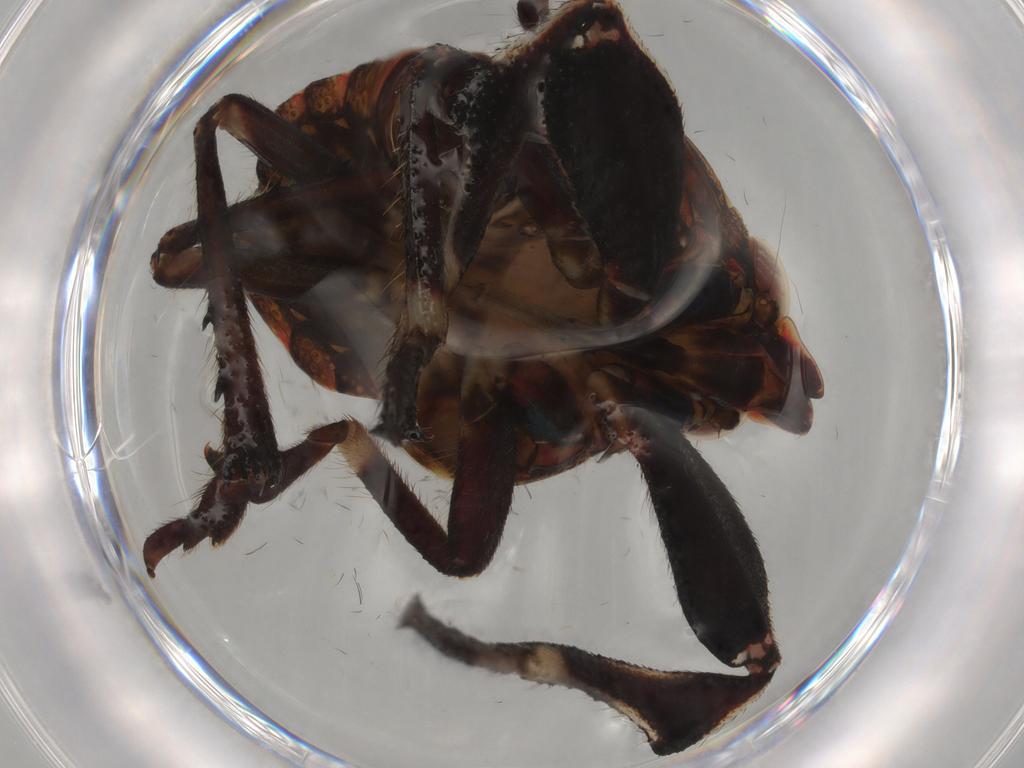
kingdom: Animalia
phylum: Arthropoda
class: Insecta
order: Hemiptera
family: Caliscelidae
